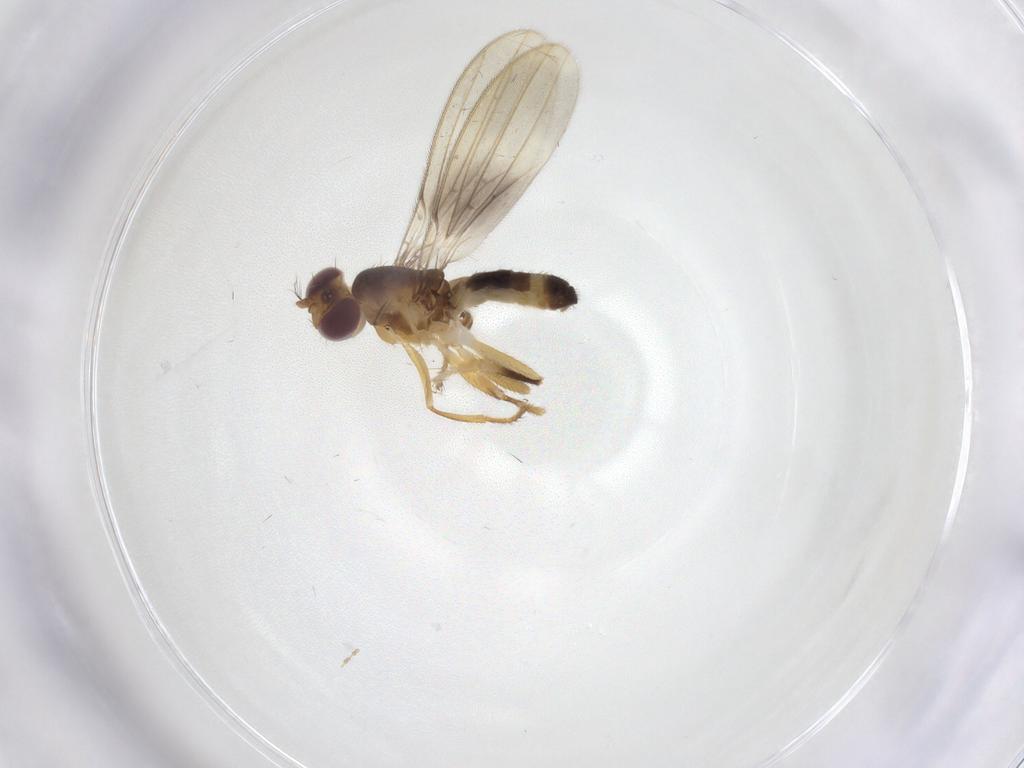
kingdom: Animalia
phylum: Arthropoda
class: Insecta
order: Diptera
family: Periscelididae
